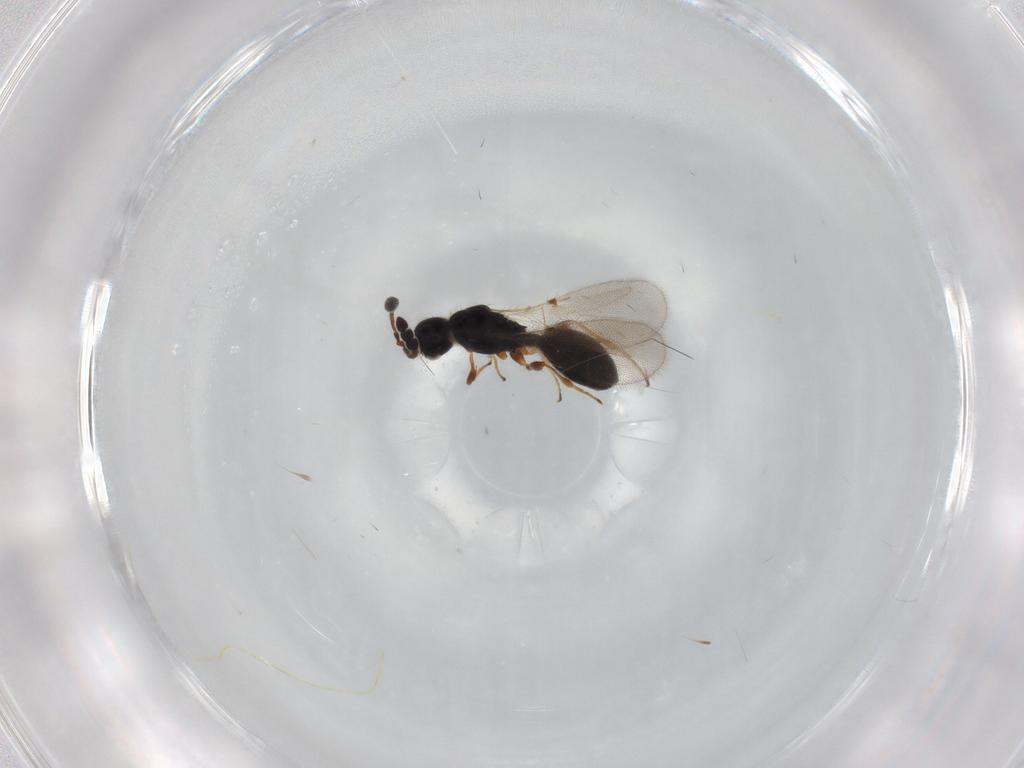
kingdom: Animalia
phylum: Arthropoda
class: Insecta
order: Hymenoptera
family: Diapriidae
